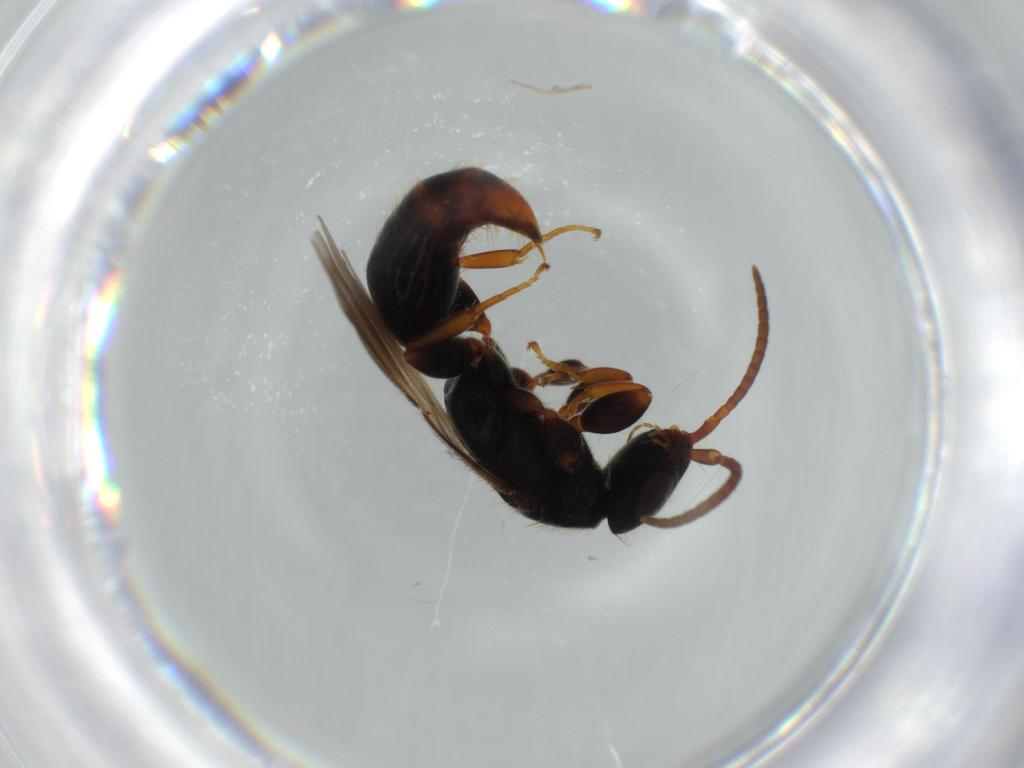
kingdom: Animalia
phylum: Arthropoda
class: Insecta
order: Hymenoptera
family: Bethylidae
